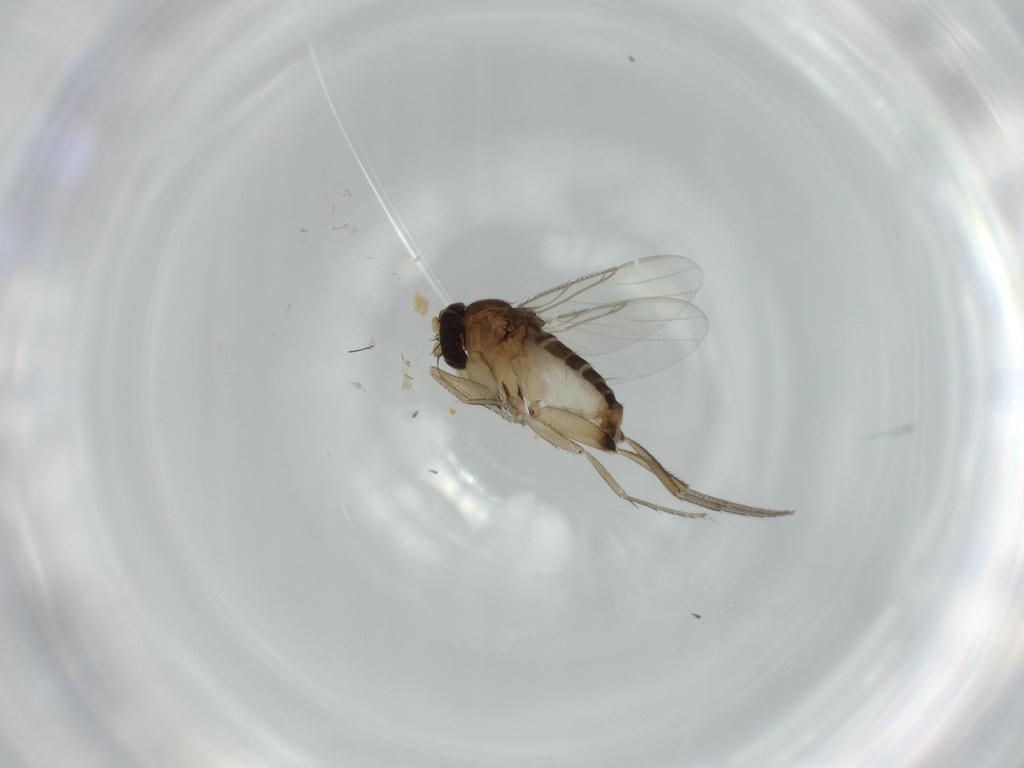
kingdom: Animalia
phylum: Arthropoda
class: Insecta
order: Diptera
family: Phoridae
